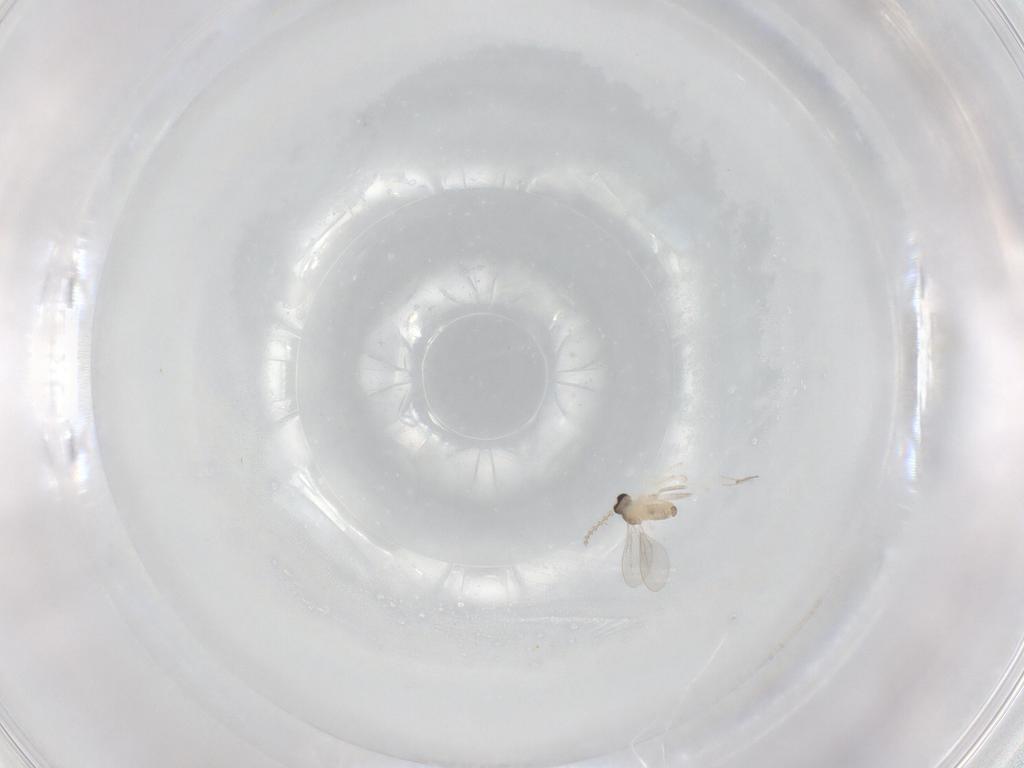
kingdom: Animalia
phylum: Arthropoda
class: Insecta
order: Diptera
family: Cecidomyiidae
